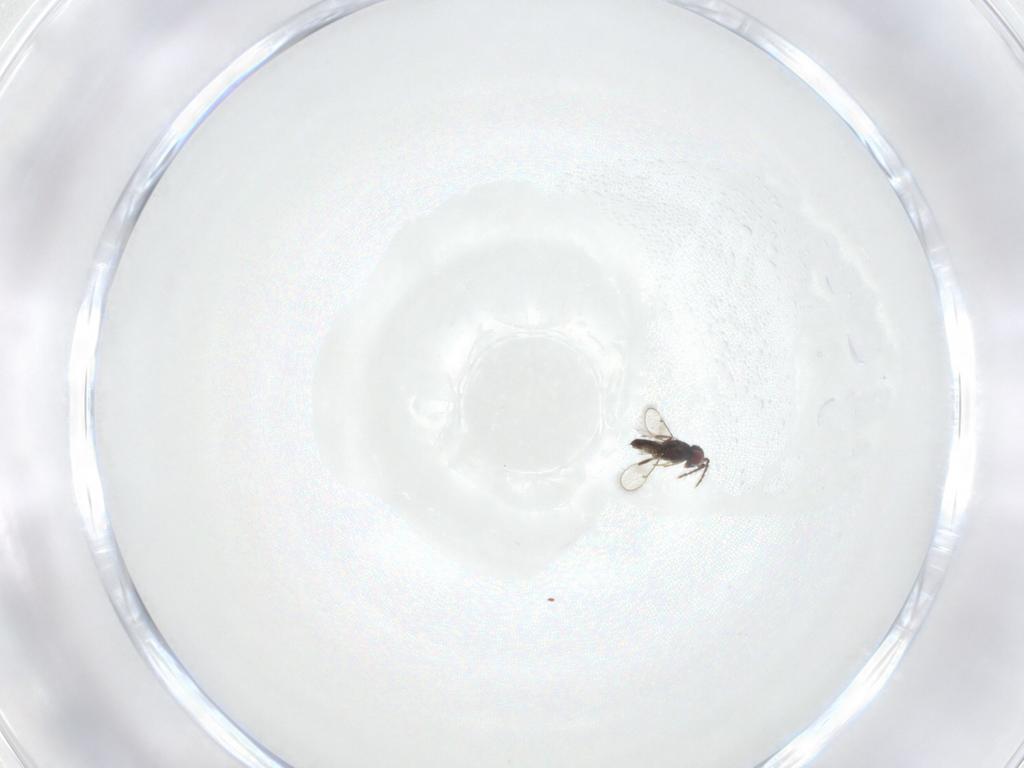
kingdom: Animalia
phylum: Arthropoda
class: Insecta
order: Hymenoptera
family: Eulophidae
